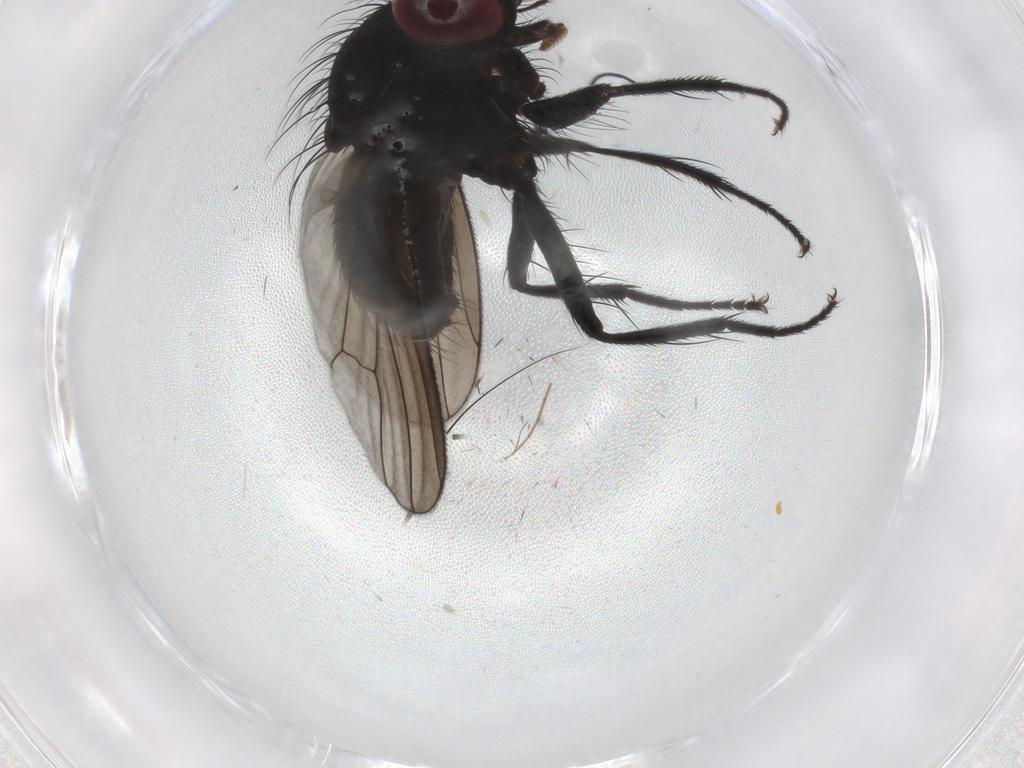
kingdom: Animalia
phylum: Arthropoda
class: Insecta
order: Diptera
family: Muscidae
